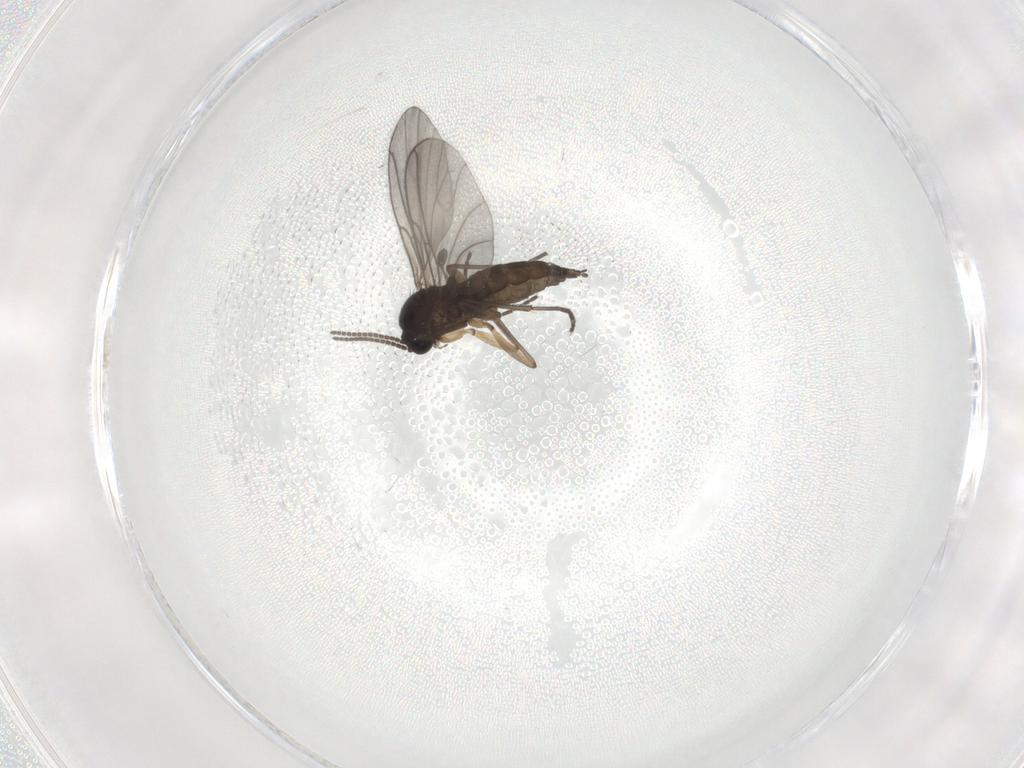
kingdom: Animalia
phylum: Arthropoda
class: Insecta
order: Diptera
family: Sciaridae
